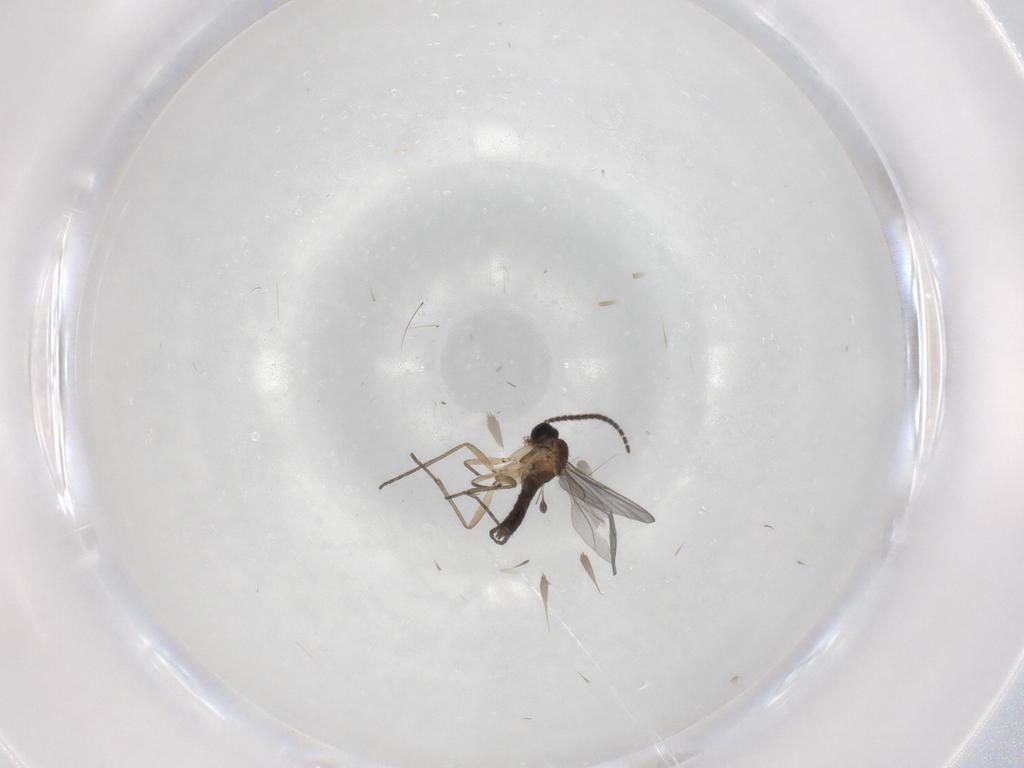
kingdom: Animalia
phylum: Arthropoda
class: Insecta
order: Diptera
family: Sciaridae
